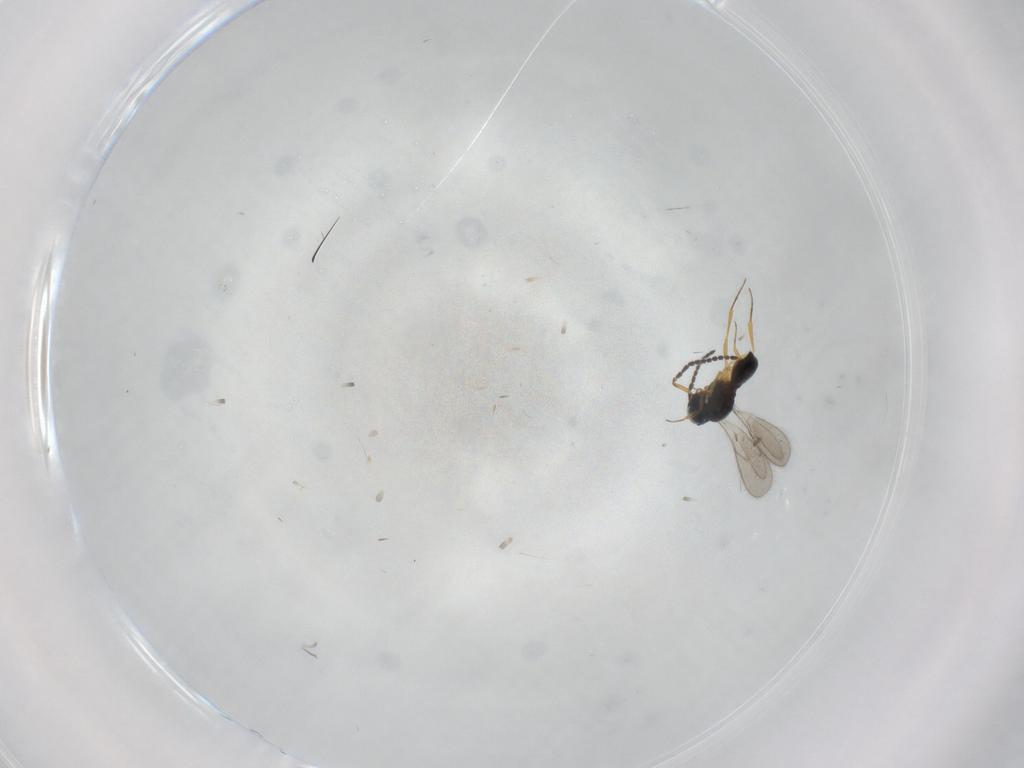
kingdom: Animalia
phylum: Arthropoda
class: Insecta
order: Hymenoptera
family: Scelionidae
